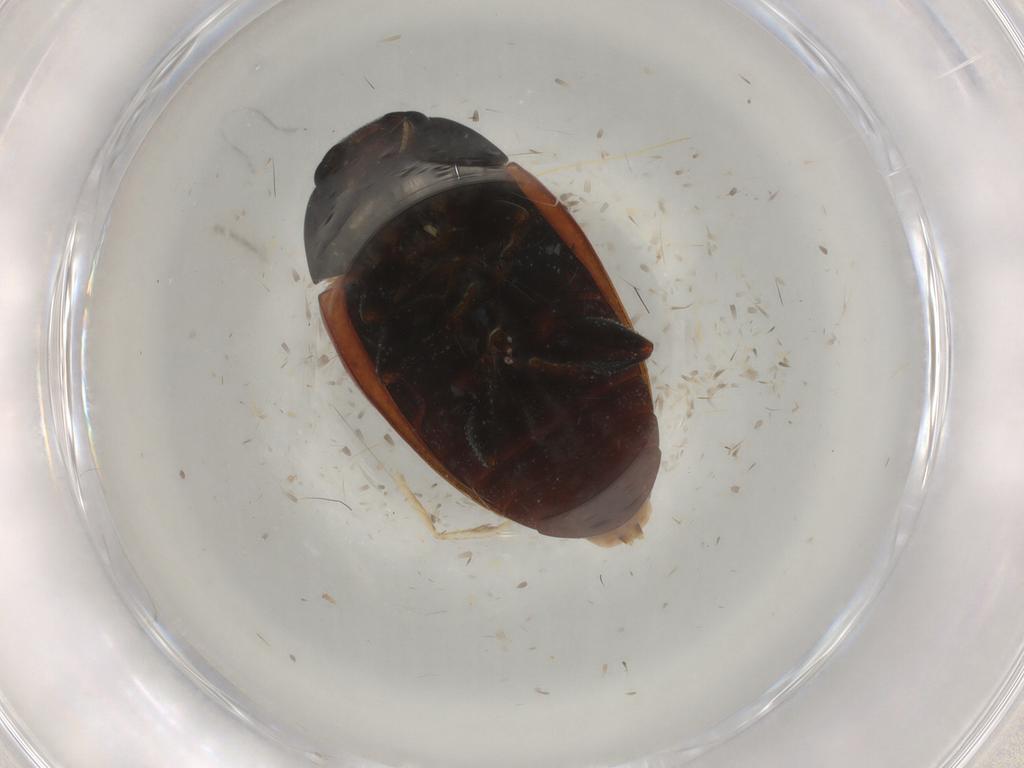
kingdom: Animalia
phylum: Arthropoda
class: Insecta
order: Coleoptera
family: Erotylidae
